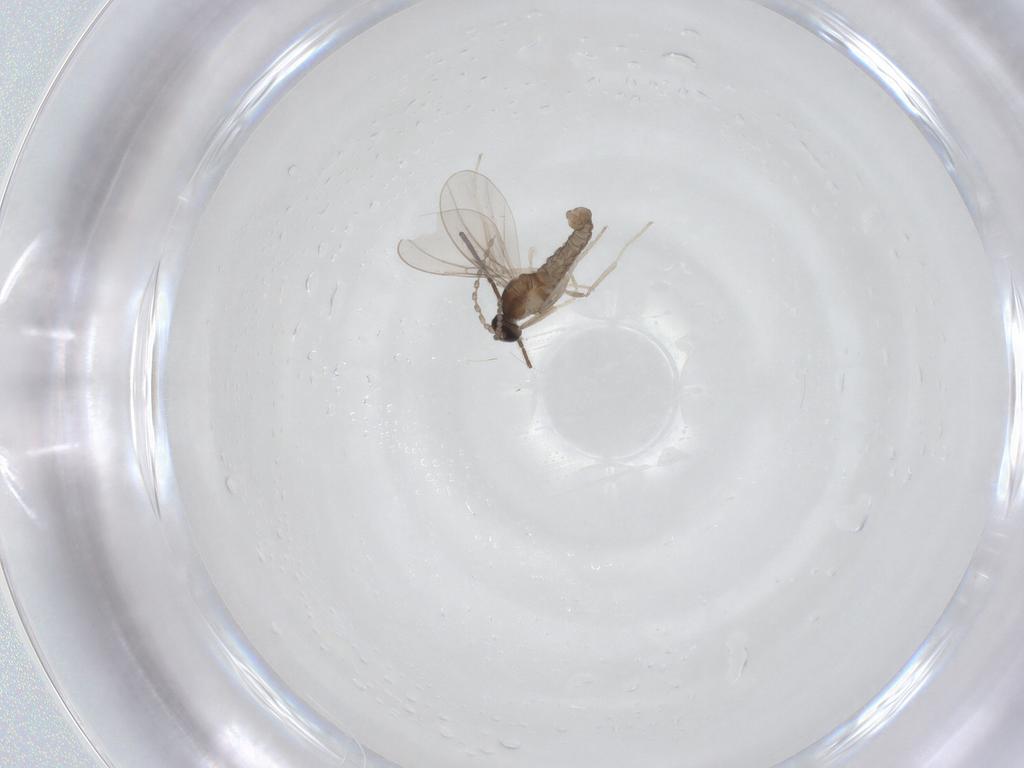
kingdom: Animalia
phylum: Arthropoda
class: Insecta
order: Diptera
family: Cecidomyiidae
